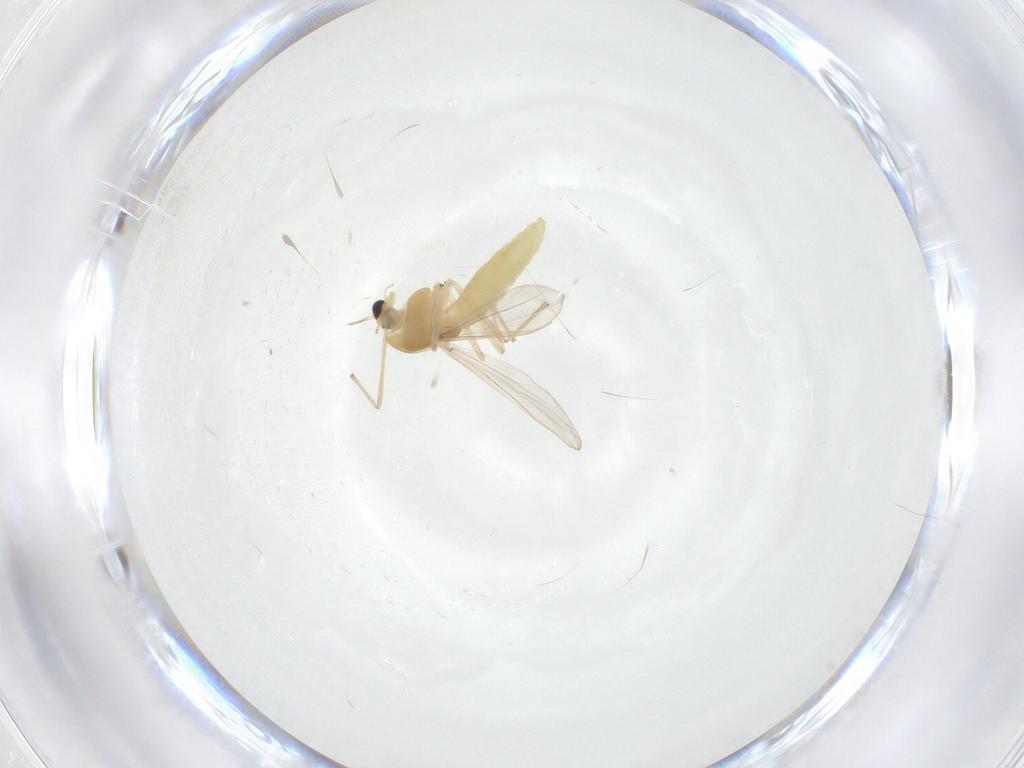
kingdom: Animalia
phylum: Arthropoda
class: Insecta
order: Diptera
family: Chironomidae
